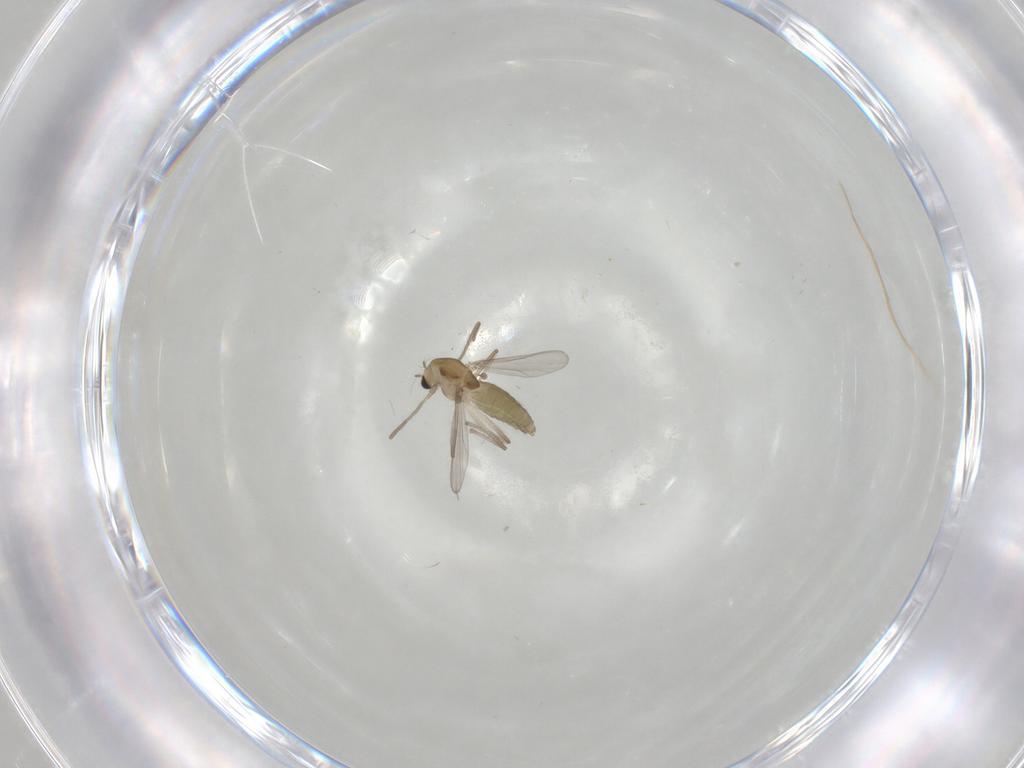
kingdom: Animalia
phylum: Arthropoda
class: Insecta
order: Diptera
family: Chironomidae
